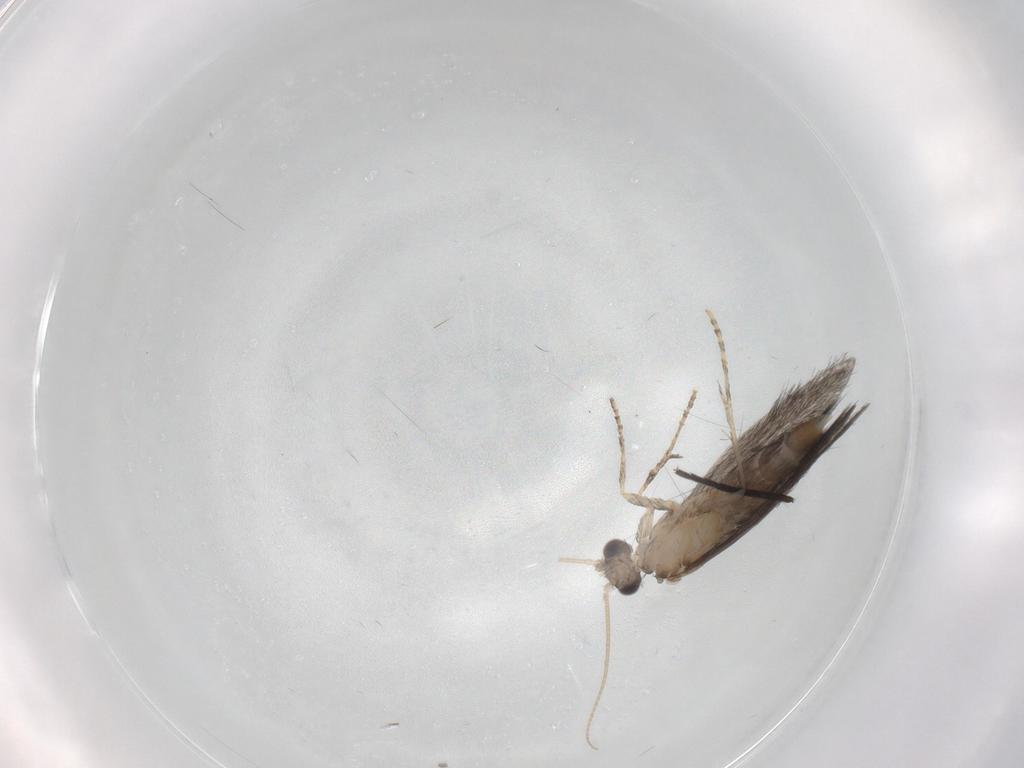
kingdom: Animalia
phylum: Arthropoda
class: Insecta
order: Trichoptera
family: Hydroptilidae
